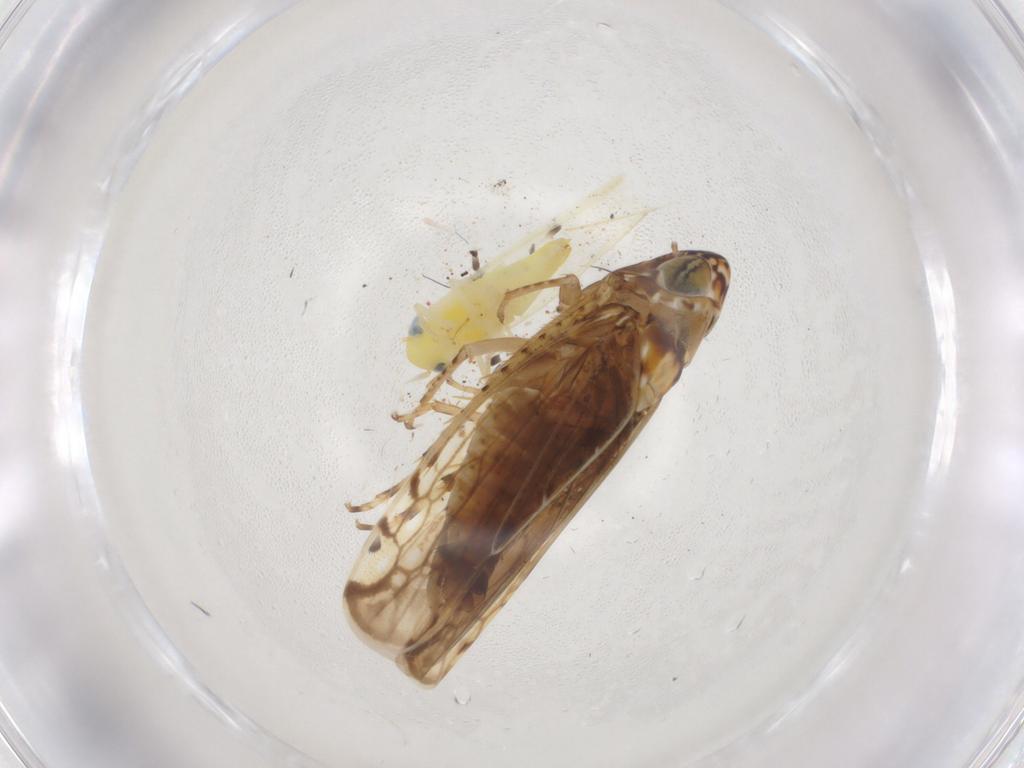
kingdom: Animalia
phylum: Arthropoda
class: Insecta
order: Hemiptera
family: Cicadellidae
